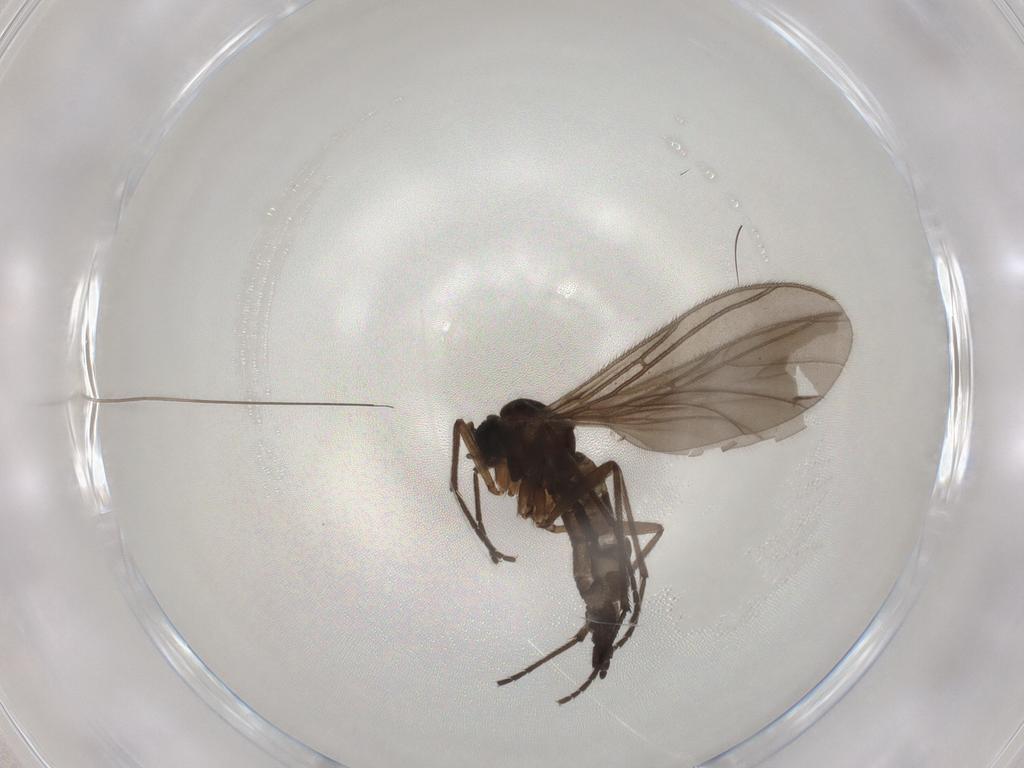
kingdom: Animalia
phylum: Arthropoda
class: Insecta
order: Diptera
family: Sciaridae
